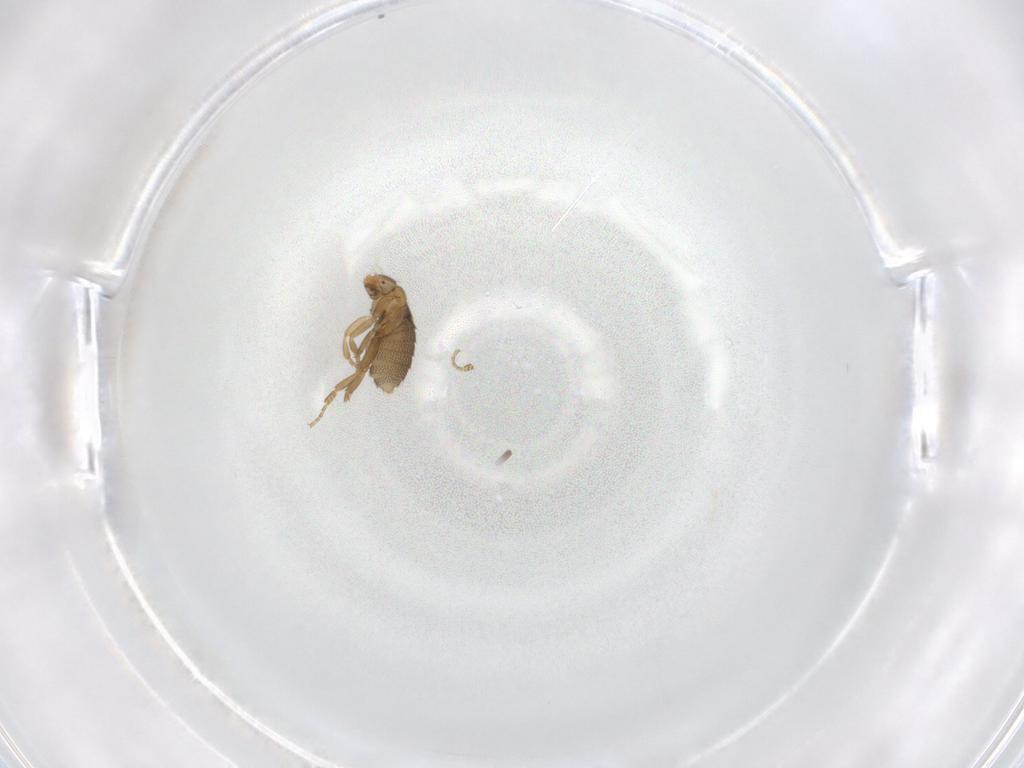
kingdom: Animalia
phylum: Arthropoda
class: Insecta
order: Diptera
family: Phoridae
